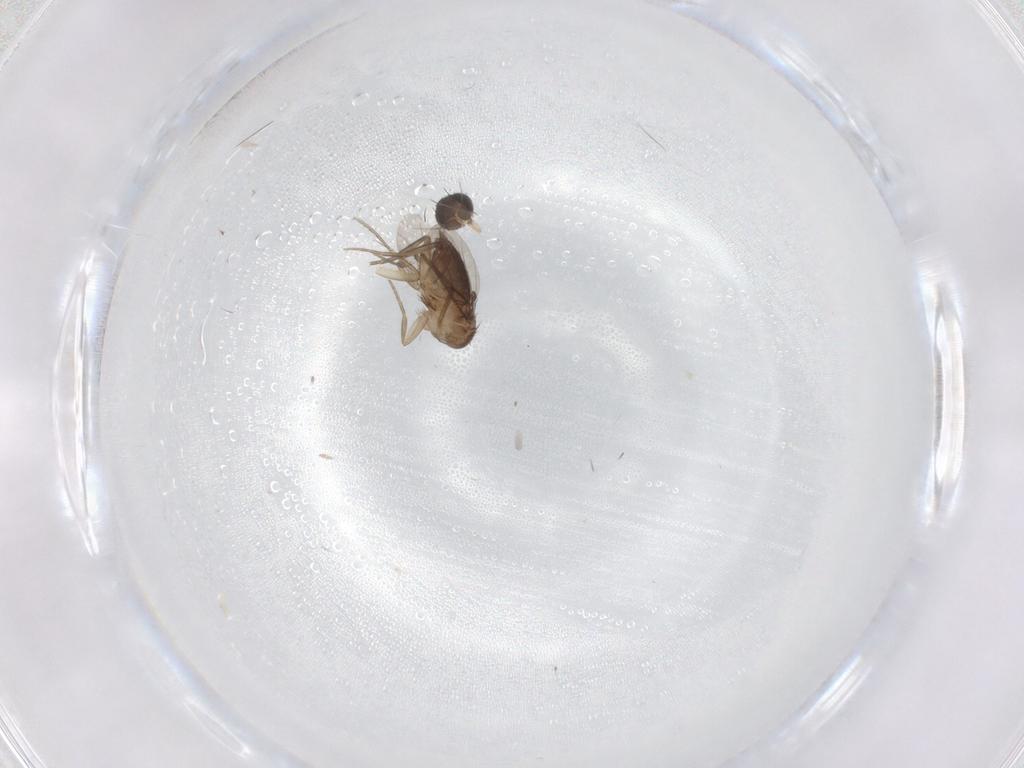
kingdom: Animalia
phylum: Arthropoda
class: Insecta
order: Diptera
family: Phoridae
